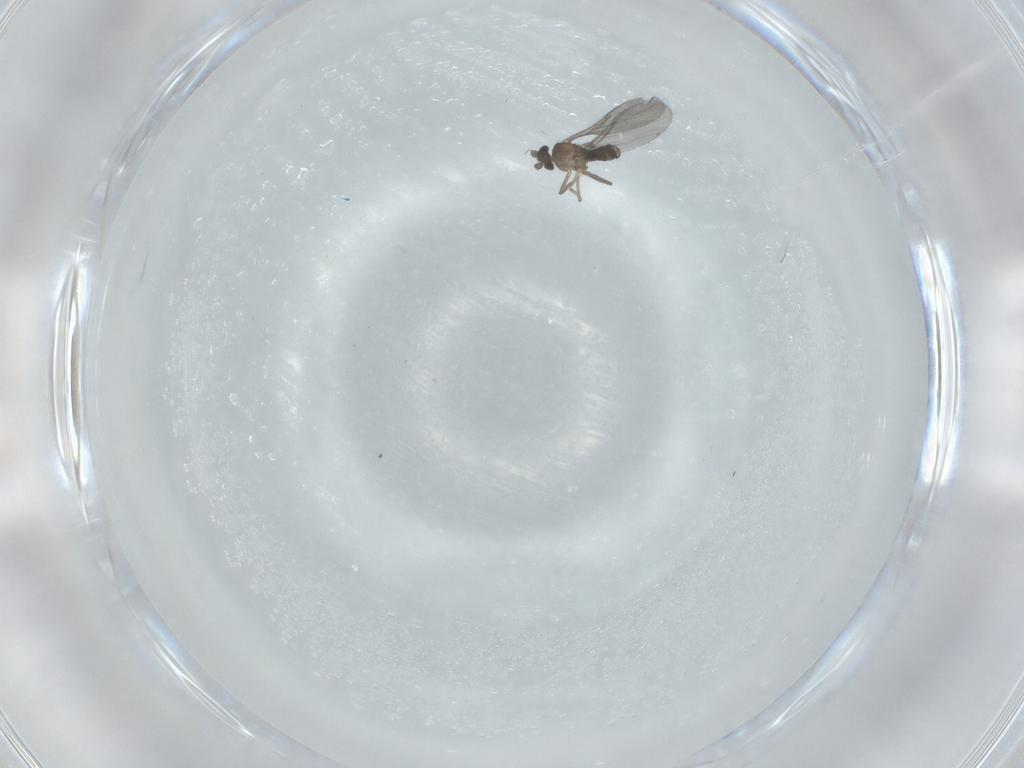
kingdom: Animalia
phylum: Arthropoda
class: Insecta
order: Diptera
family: Phoridae
